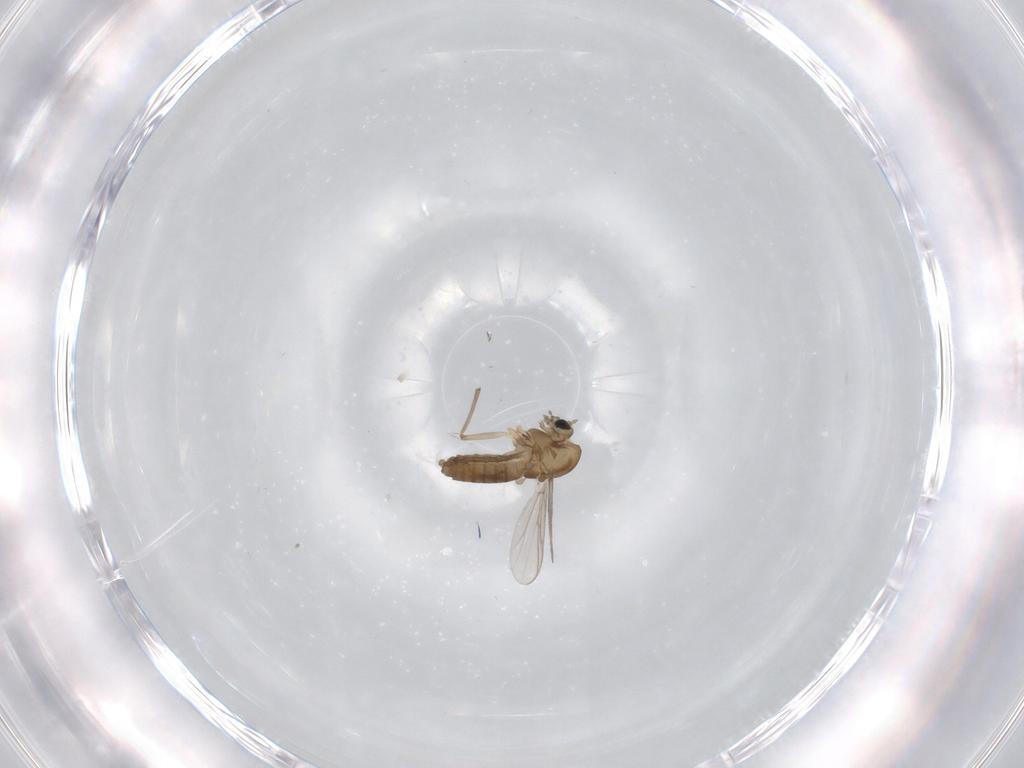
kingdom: Animalia
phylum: Arthropoda
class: Insecta
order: Diptera
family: Chironomidae
